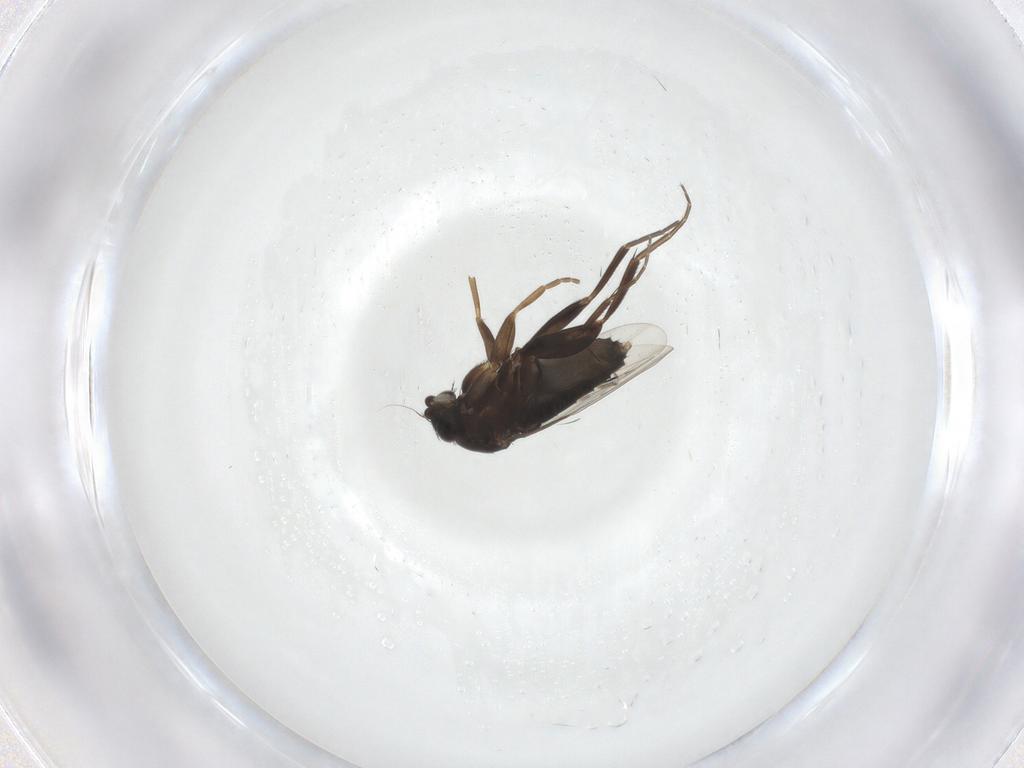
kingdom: Animalia
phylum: Arthropoda
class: Insecta
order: Diptera
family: Phoridae
